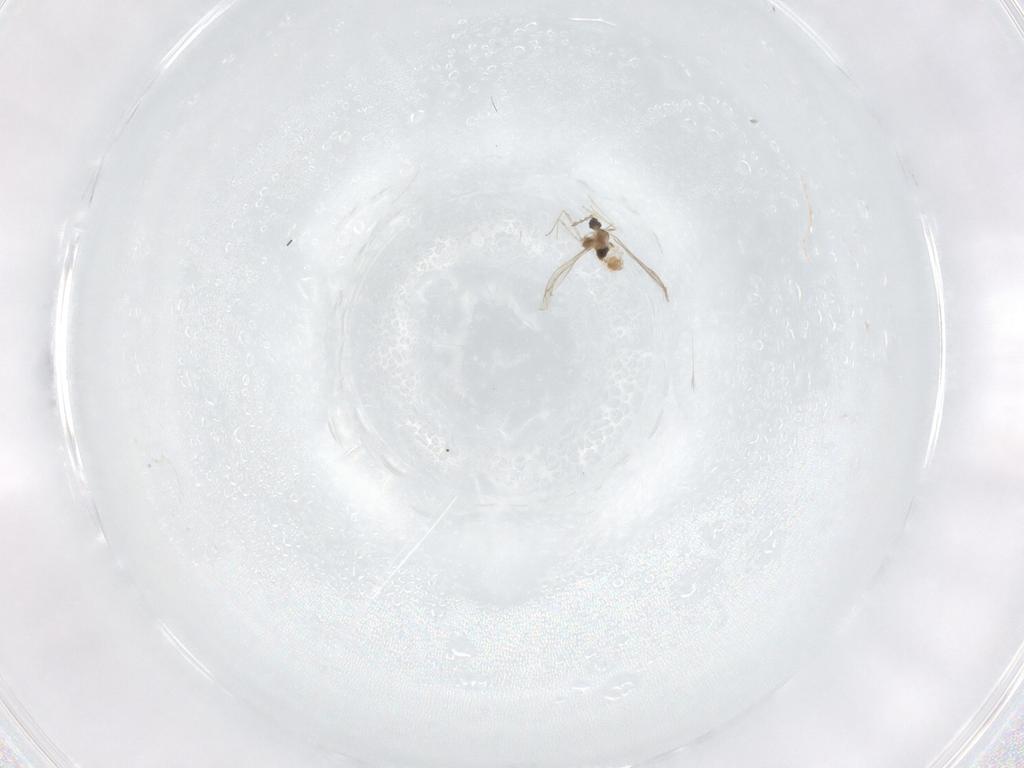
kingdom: Animalia
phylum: Arthropoda
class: Insecta
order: Diptera
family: Cecidomyiidae
